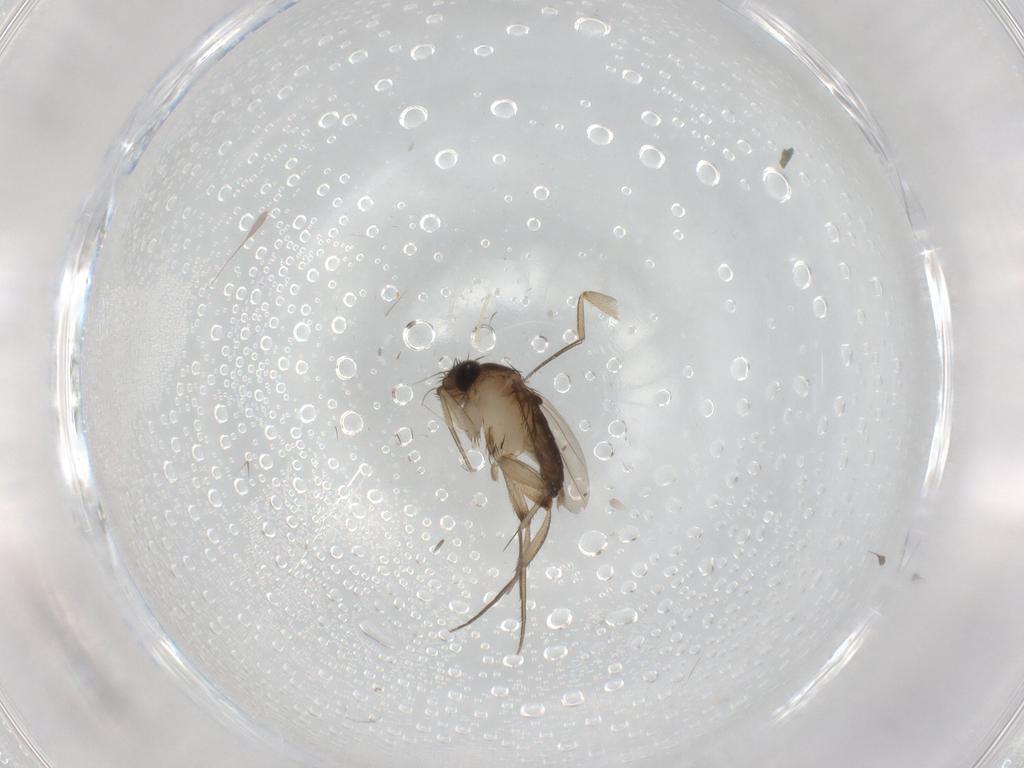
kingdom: Animalia
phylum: Arthropoda
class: Insecta
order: Diptera
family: Phoridae
